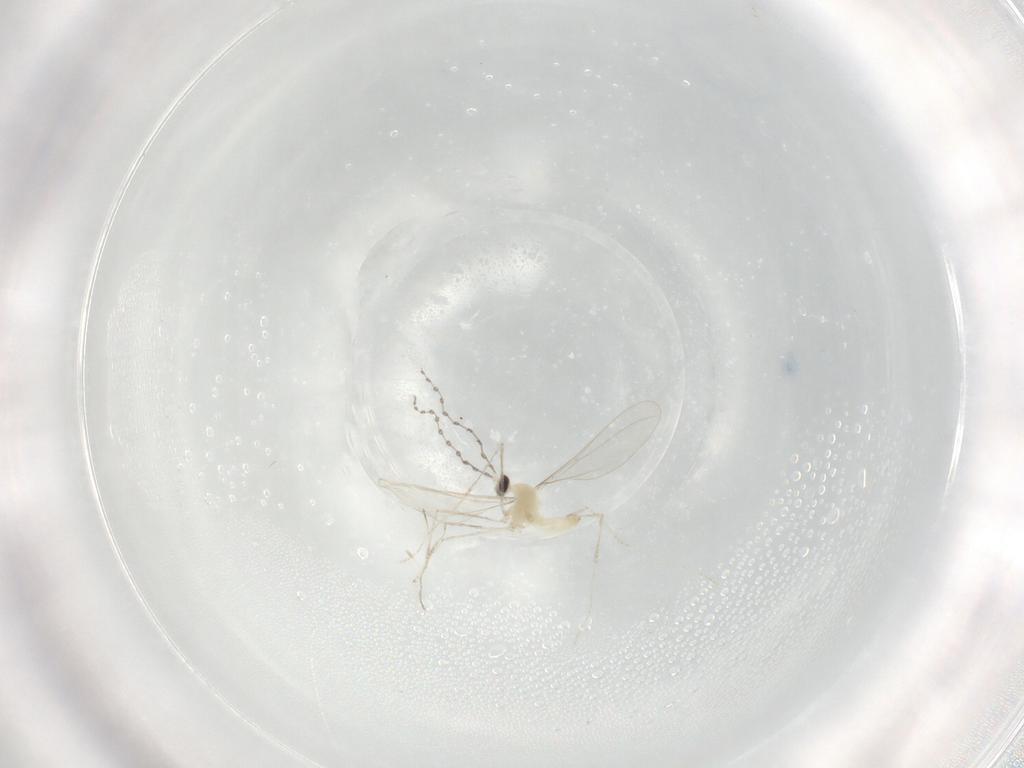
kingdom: Animalia
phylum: Arthropoda
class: Insecta
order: Diptera
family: Cecidomyiidae
